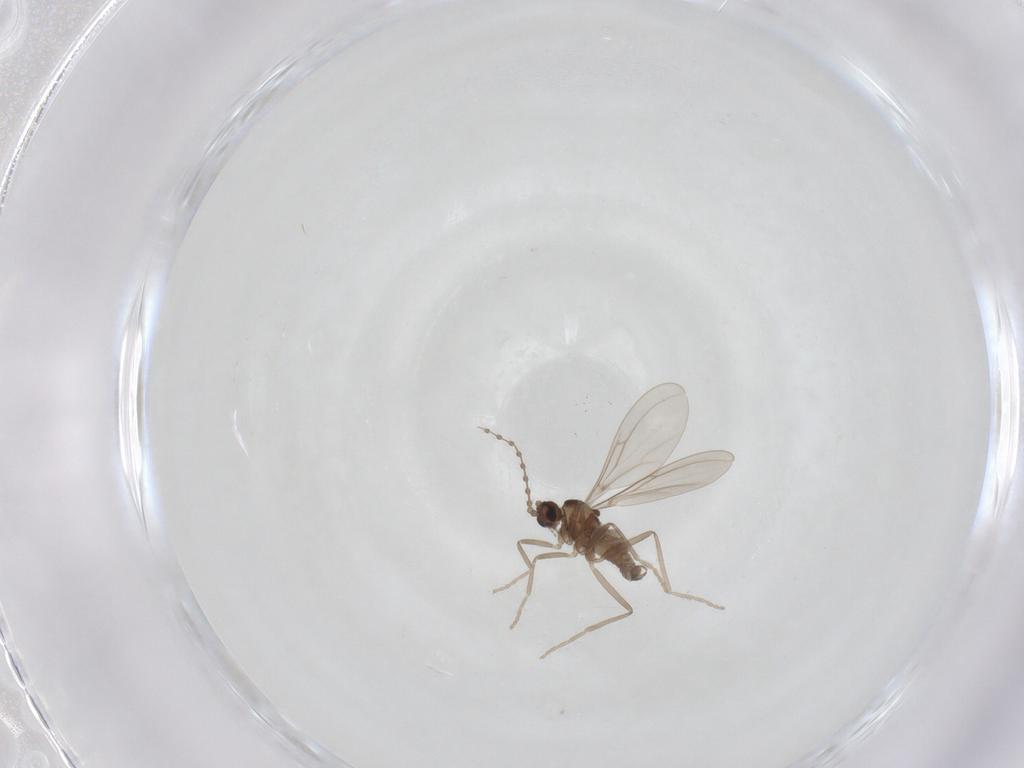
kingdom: Animalia
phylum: Arthropoda
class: Insecta
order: Diptera
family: Cecidomyiidae
